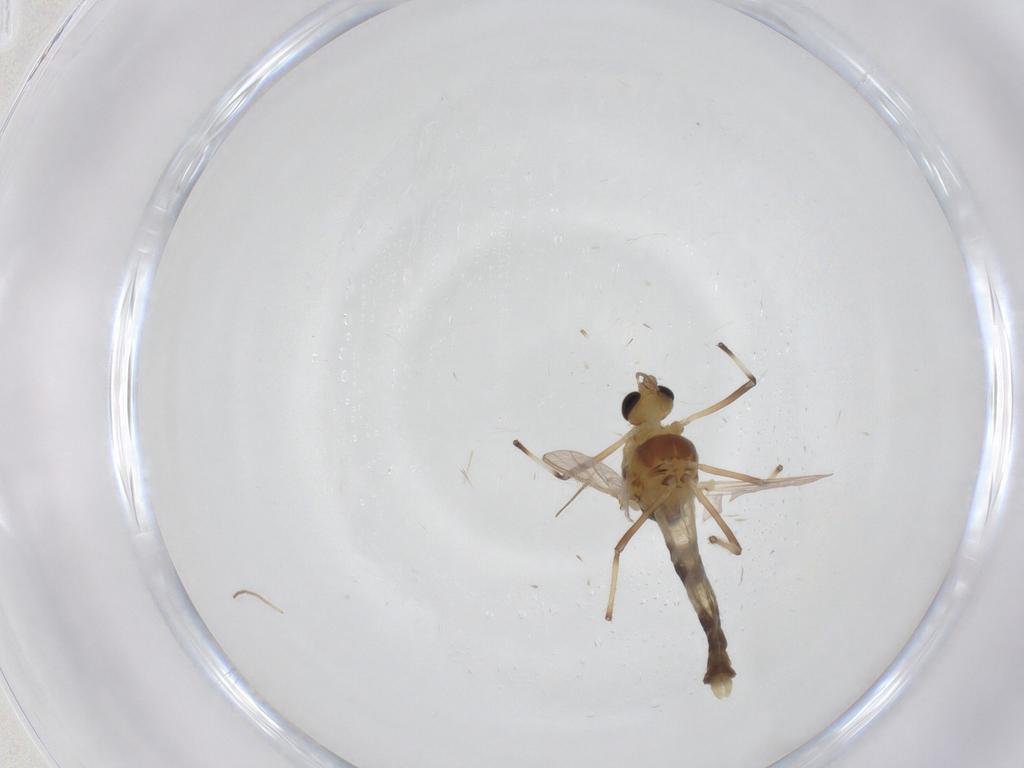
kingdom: Animalia
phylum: Arthropoda
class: Insecta
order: Diptera
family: Chironomidae
